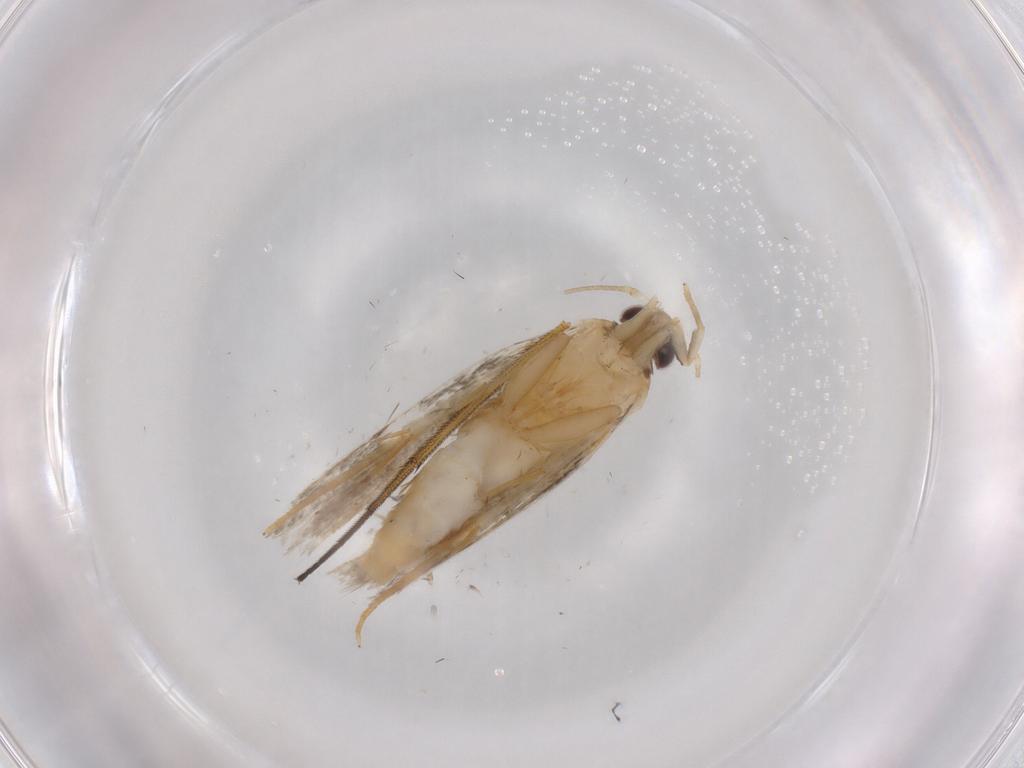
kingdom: Animalia
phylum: Arthropoda
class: Insecta
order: Lepidoptera
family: Autostichidae
